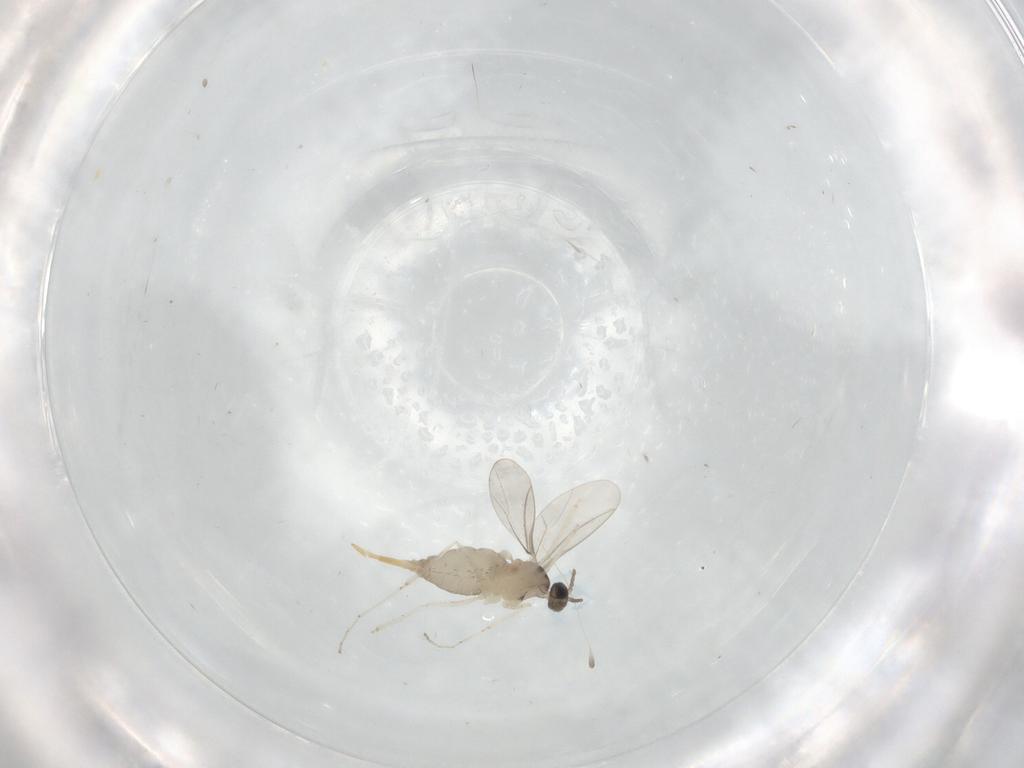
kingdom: Animalia
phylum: Arthropoda
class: Insecta
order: Diptera
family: Cecidomyiidae
